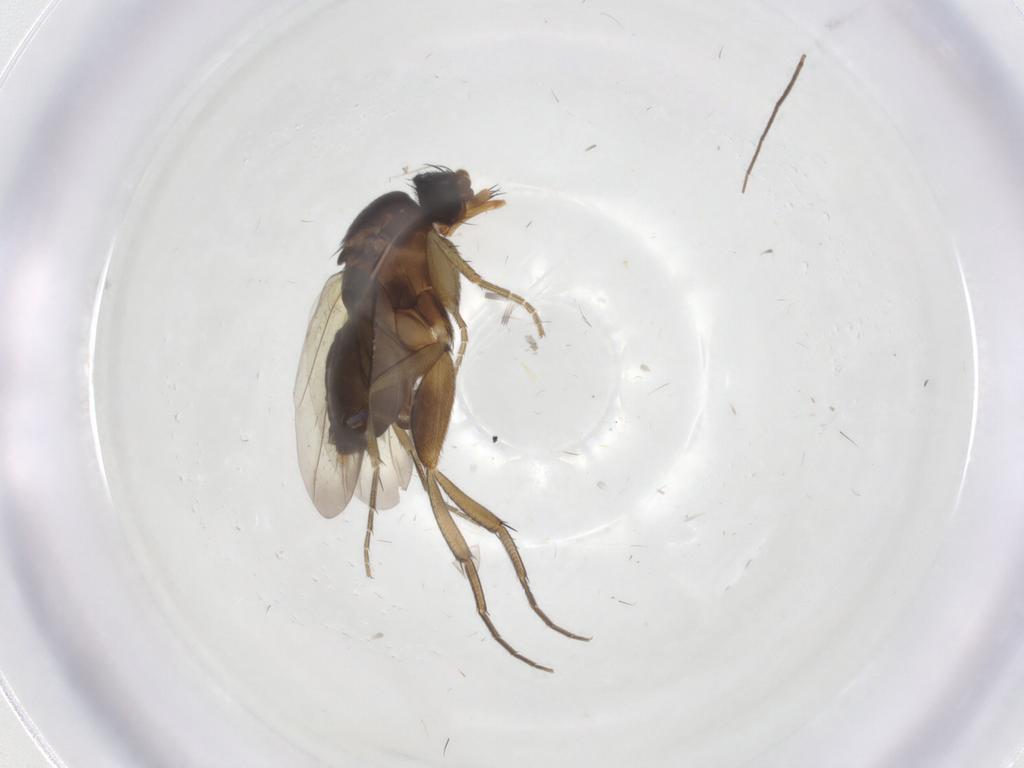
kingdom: Animalia
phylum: Arthropoda
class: Insecta
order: Diptera
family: Phoridae
